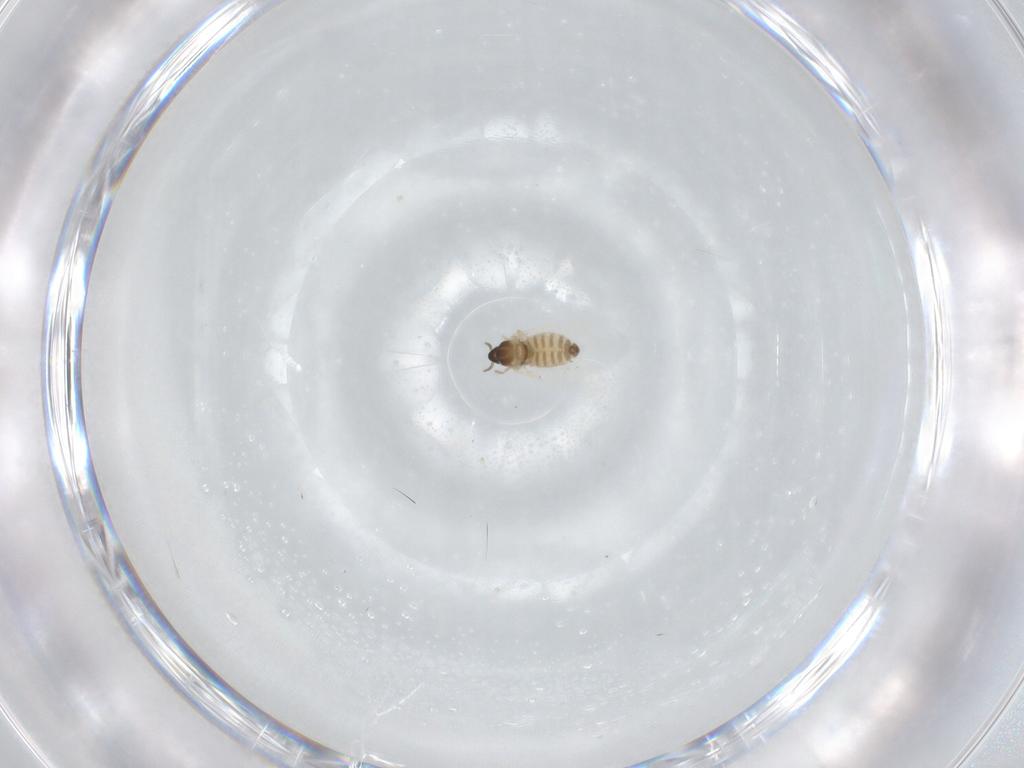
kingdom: Animalia
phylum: Arthropoda
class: Insecta
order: Diptera
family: Cecidomyiidae
